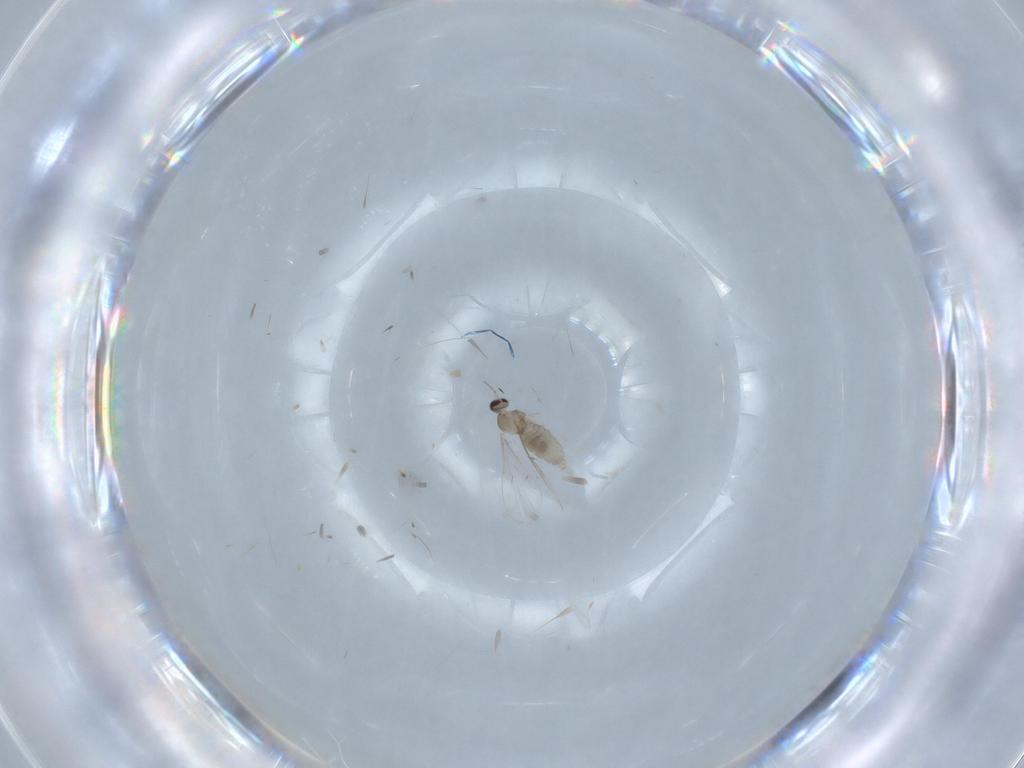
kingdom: Animalia
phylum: Arthropoda
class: Insecta
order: Diptera
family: Cecidomyiidae
